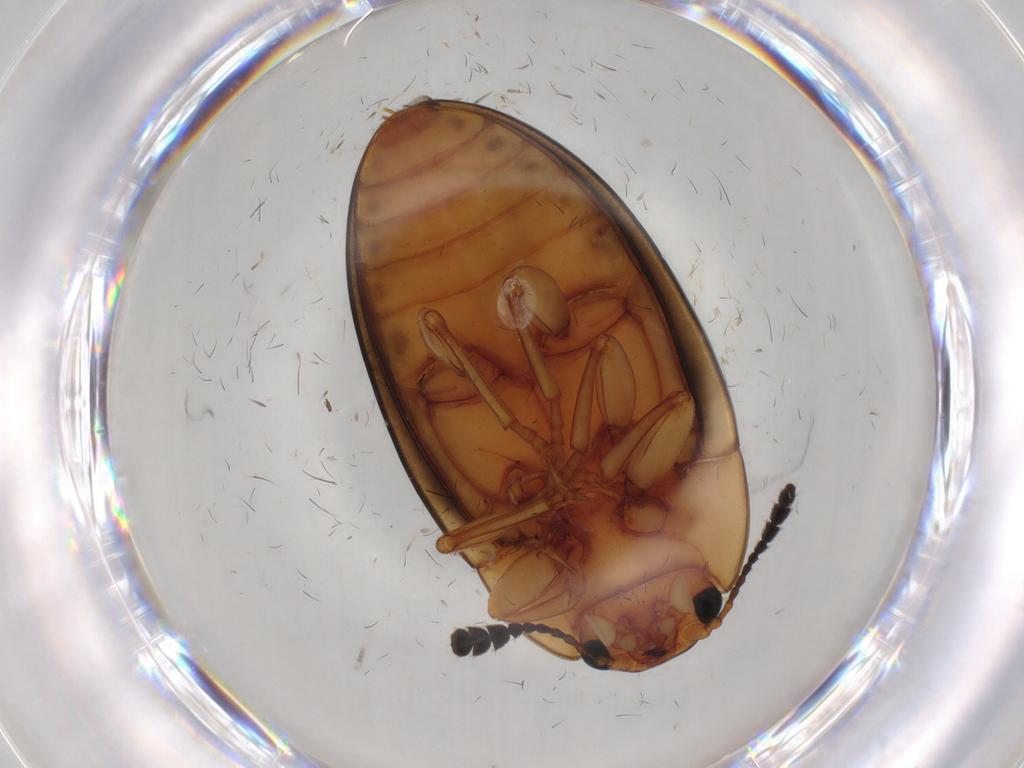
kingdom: Animalia
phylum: Arthropoda
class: Insecta
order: Coleoptera
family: Erotylidae
